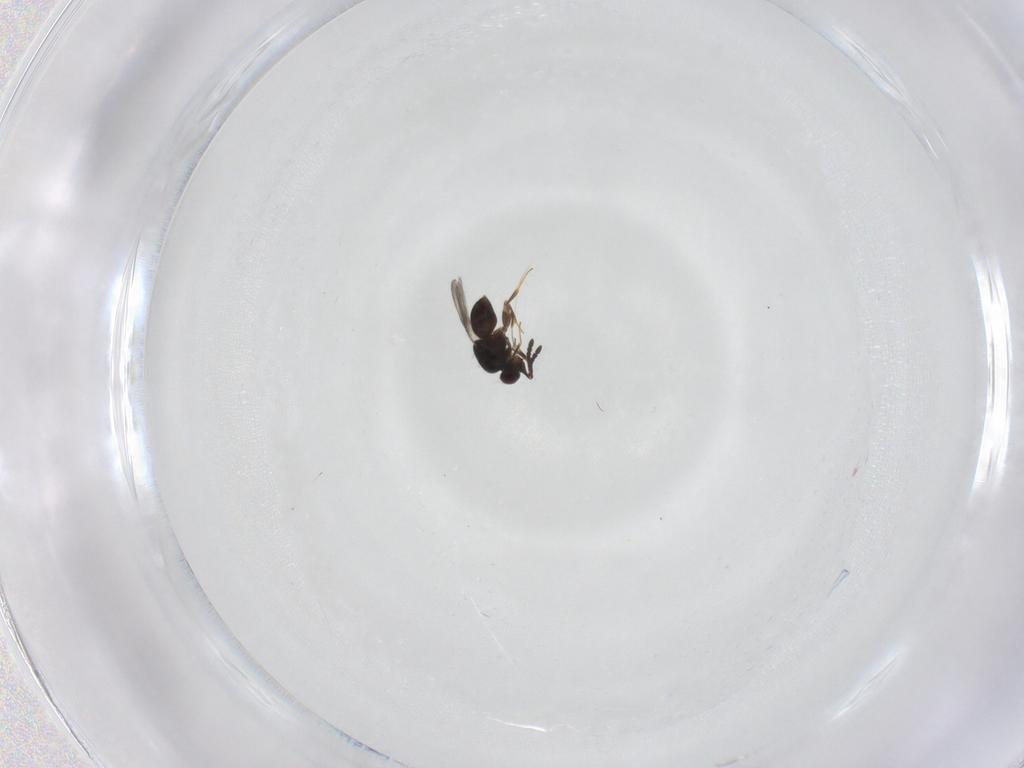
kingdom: Animalia
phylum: Arthropoda
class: Insecta
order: Hymenoptera
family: Ceraphronidae
